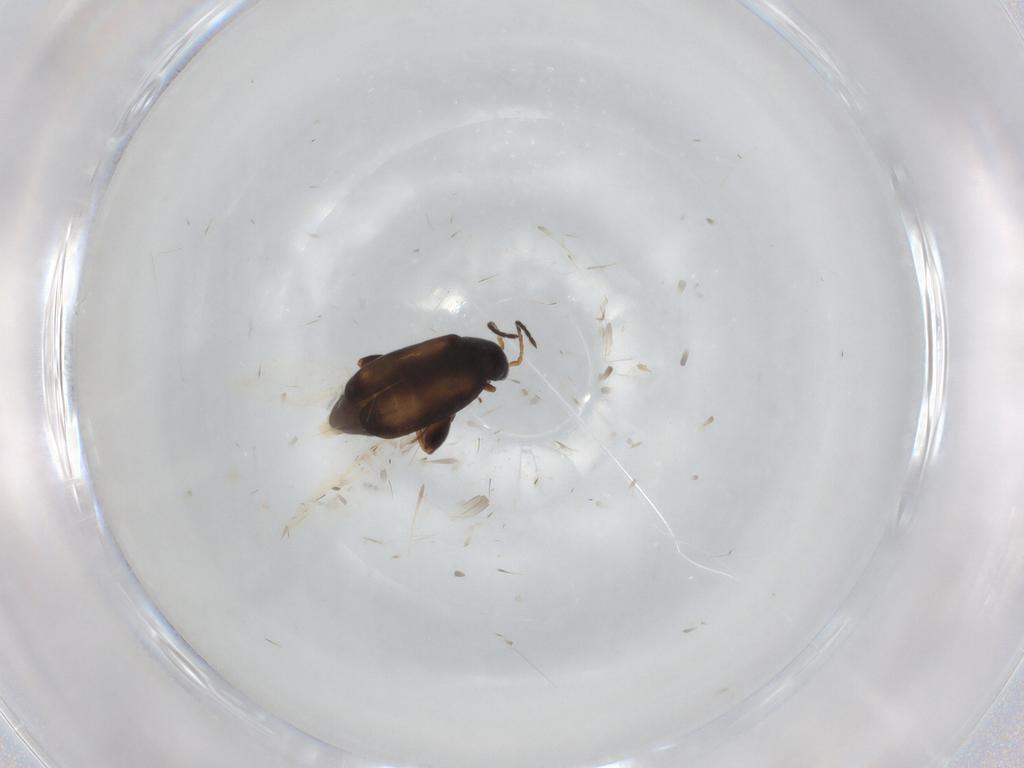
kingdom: Animalia
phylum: Arthropoda
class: Insecta
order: Coleoptera
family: Chrysomelidae
